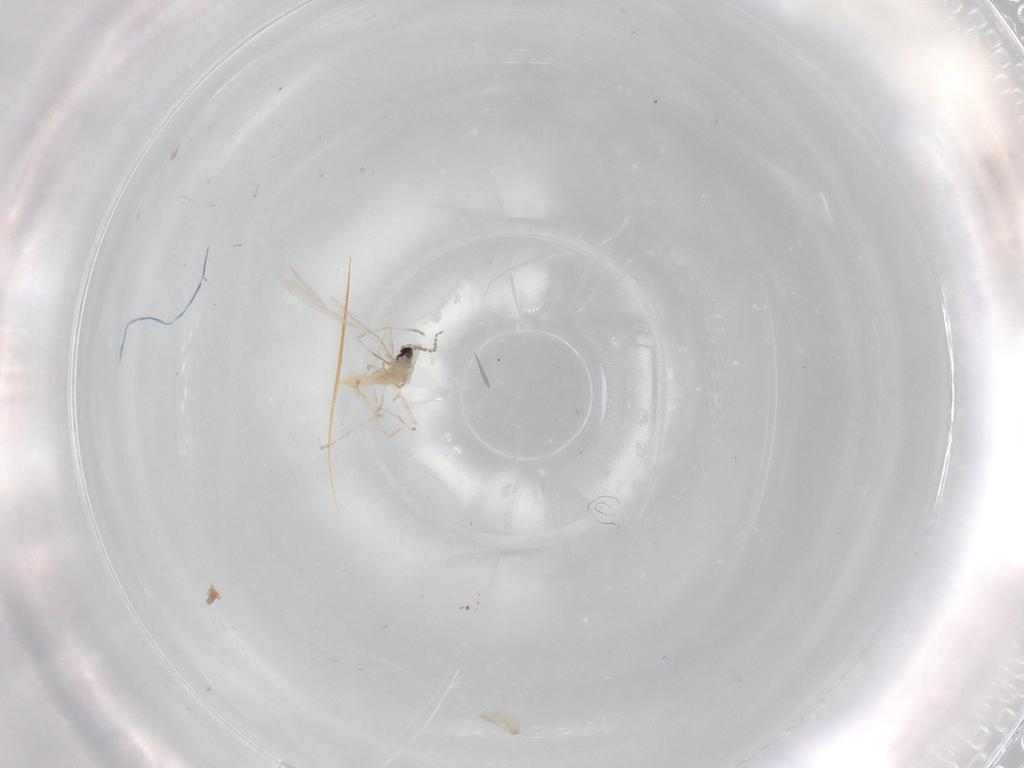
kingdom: Animalia
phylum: Arthropoda
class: Insecta
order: Diptera
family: Cecidomyiidae
